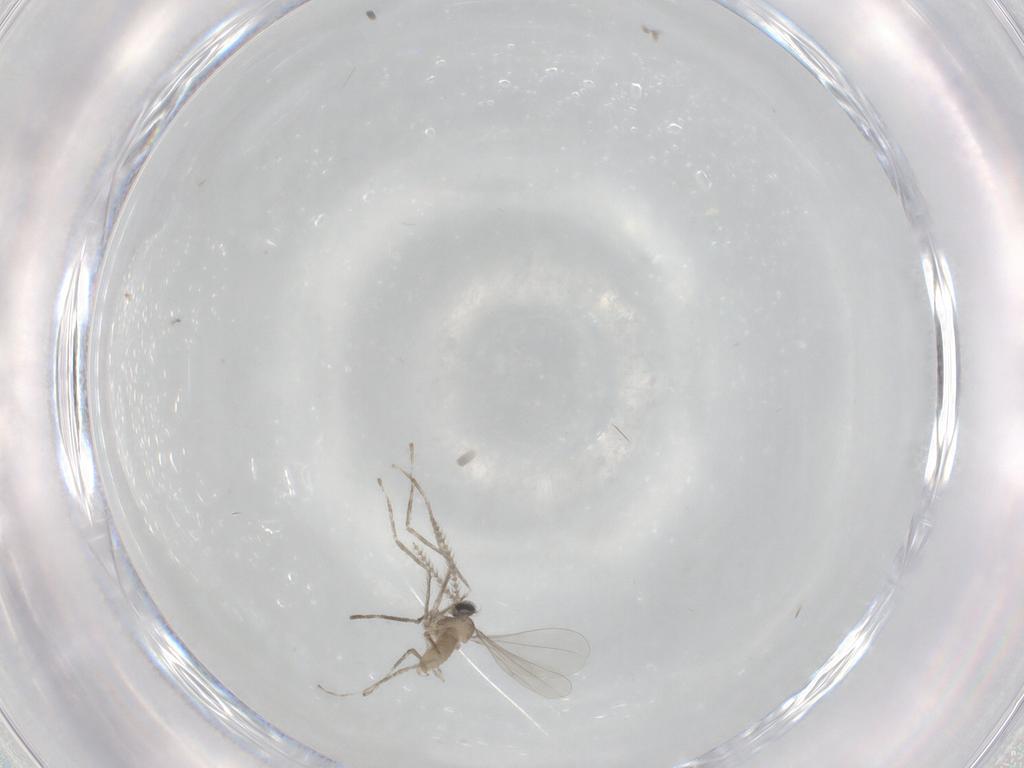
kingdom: Animalia
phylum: Arthropoda
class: Insecta
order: Diptera
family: Cecidomyiidae
